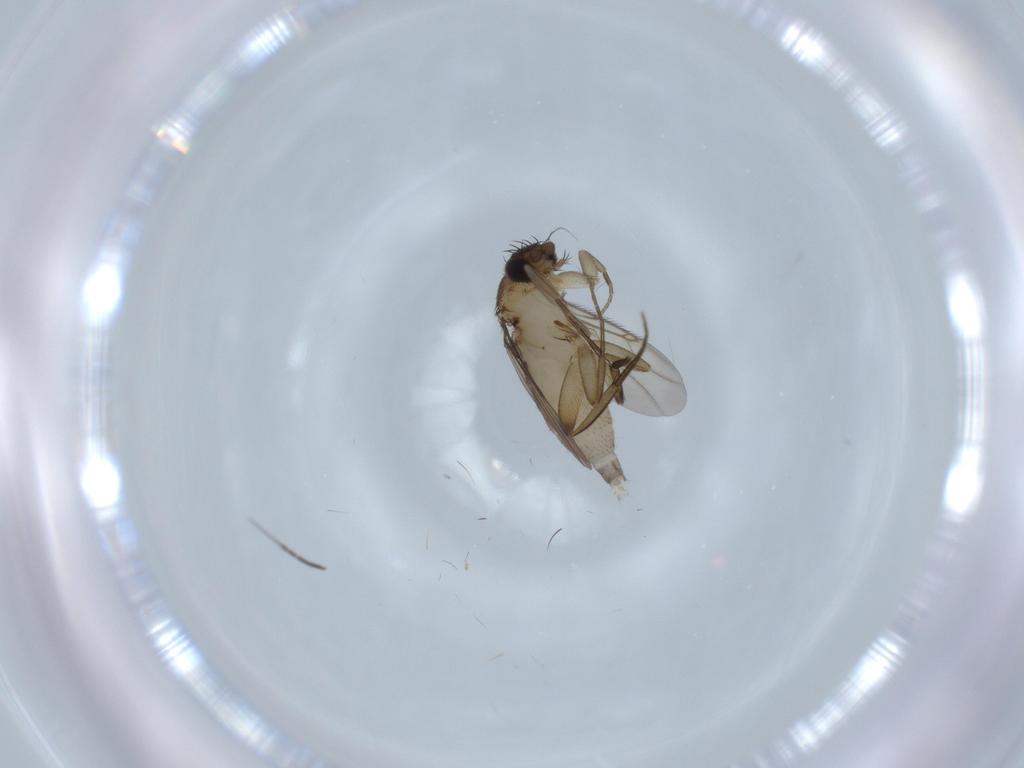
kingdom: Animalia
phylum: Arthropoda
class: Insecta
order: Diptera
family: Phoridae
